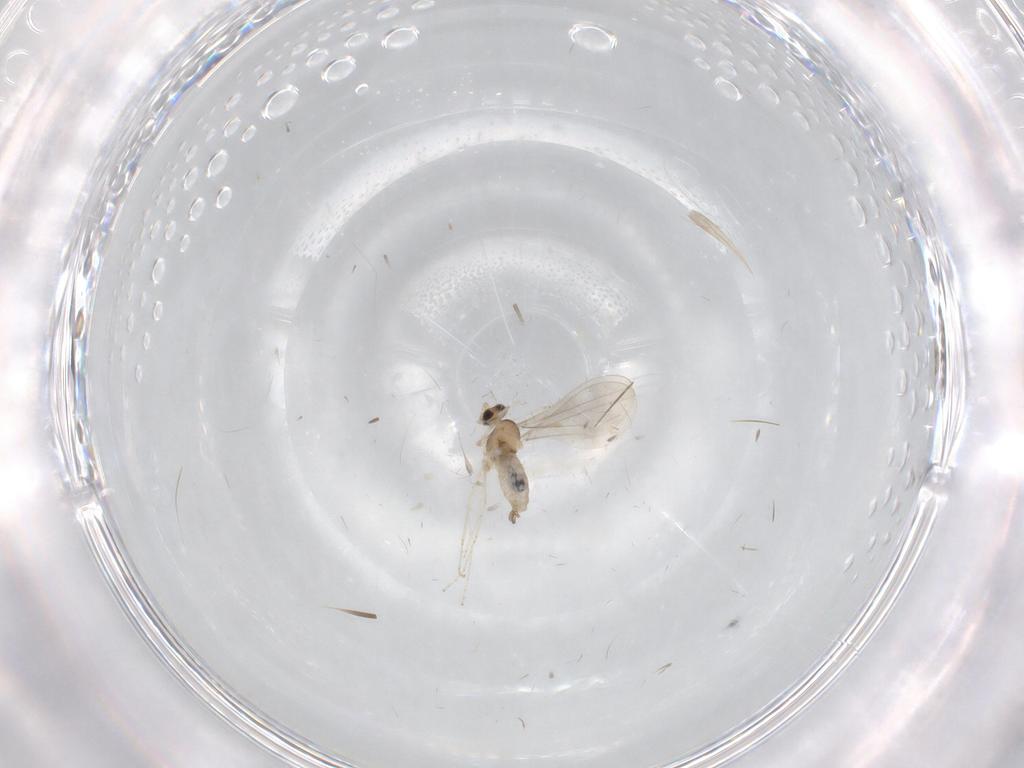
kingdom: Animalia
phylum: Arthropoda
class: Insecta
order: Diptera
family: Cecidomyiidae
